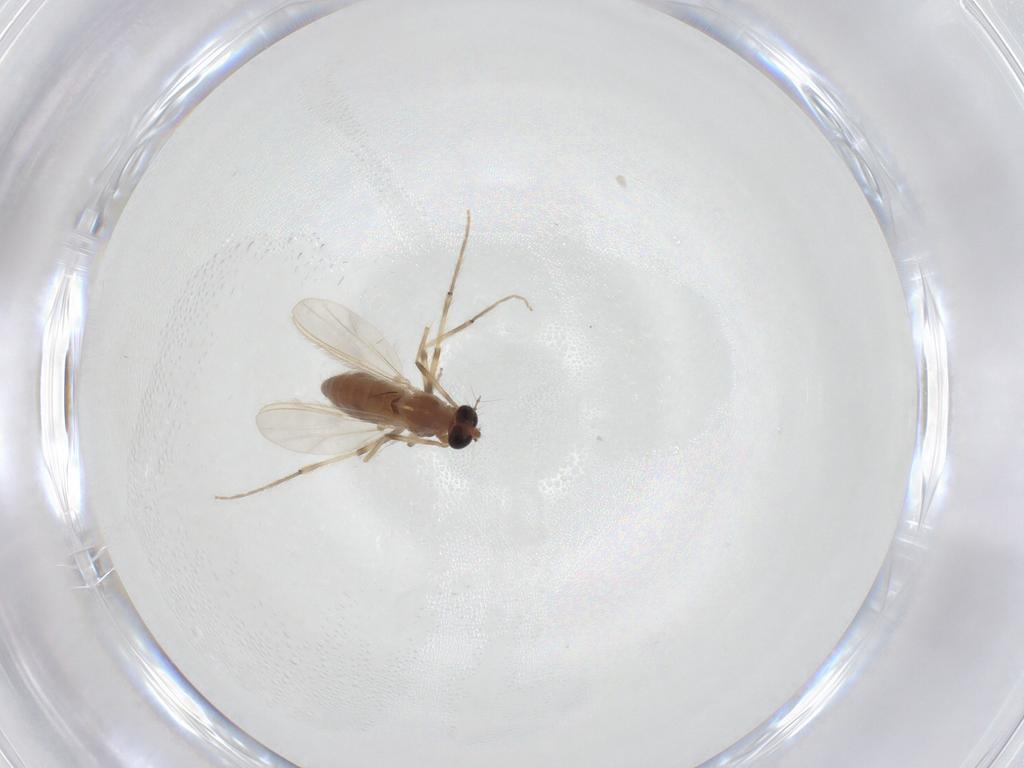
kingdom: Animalia
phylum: Arthropoda
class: Insecta
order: Diptera
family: Chironomidae
